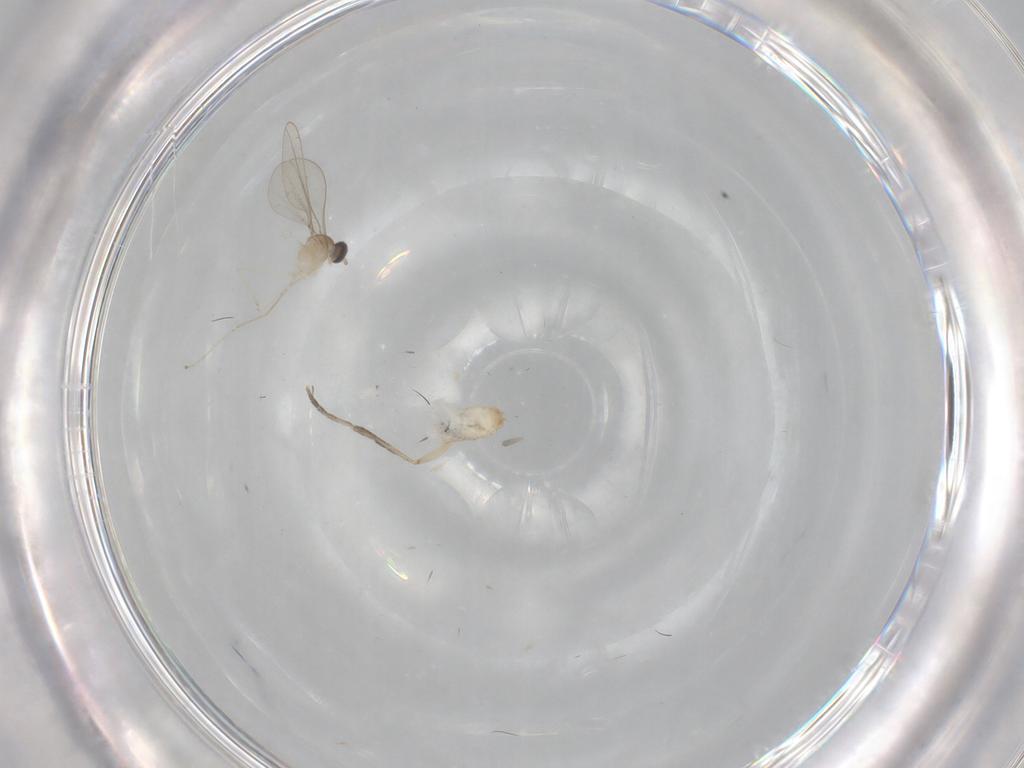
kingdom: Animalia
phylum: Arthropoda
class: Insecta
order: Diptera
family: Cecidomyiidae
